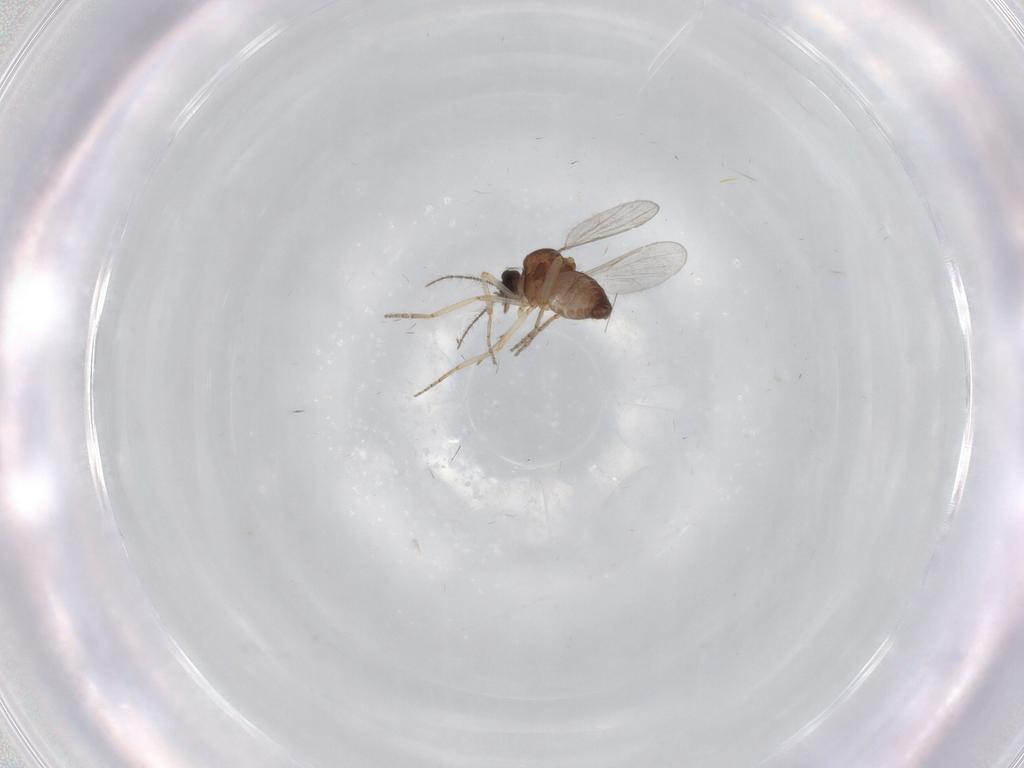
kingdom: Animalia
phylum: Arthropoda
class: Insecta
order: Diptera
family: Ceratopogonidae
